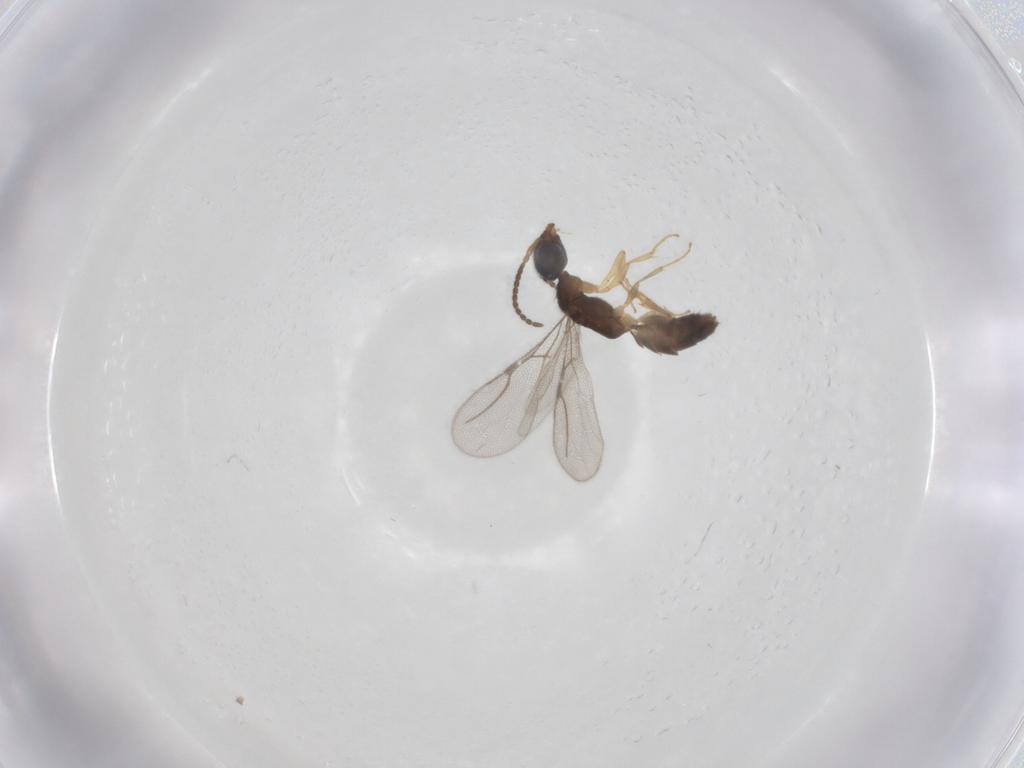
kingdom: Animalia
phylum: Arthropoda
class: Insecta
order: Hymenoptera
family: Bethylidae
